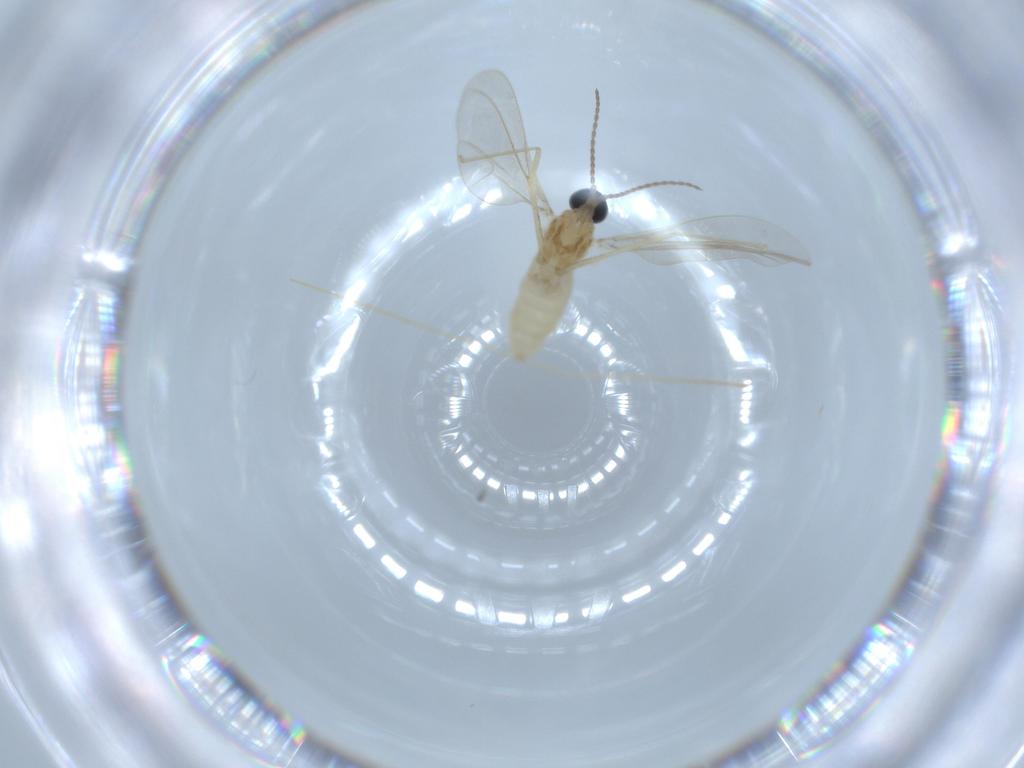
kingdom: Animalia
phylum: Arthropoda
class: Insecta
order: Diptera
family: Cecidomyiidae
